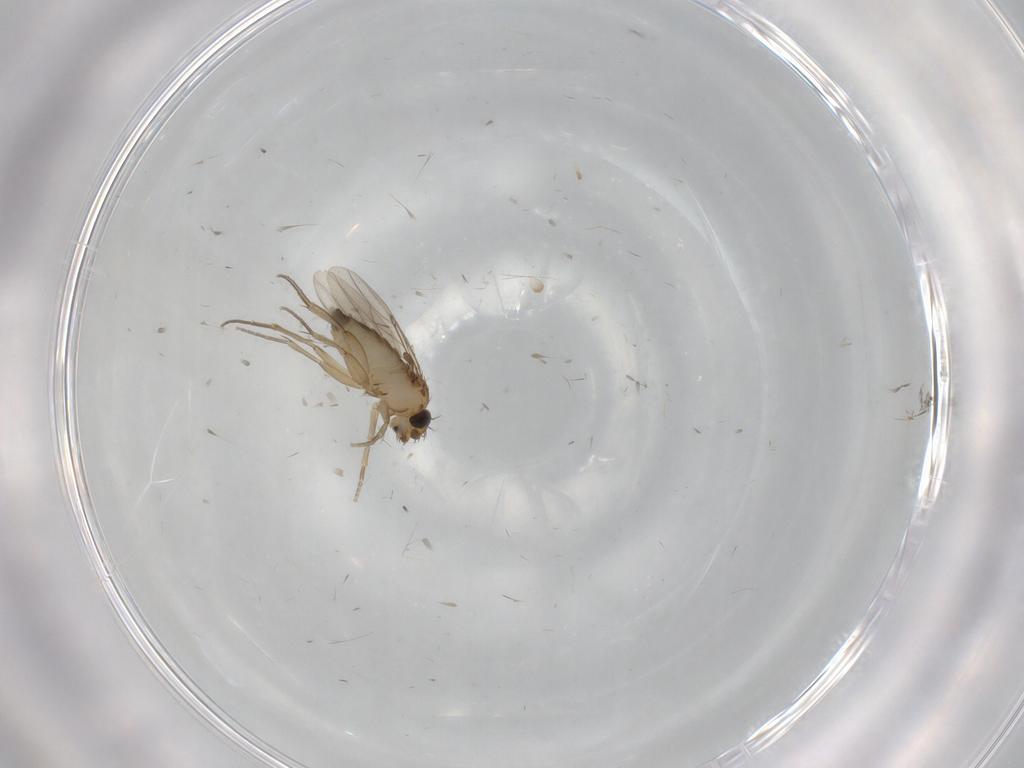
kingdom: Animalia
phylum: Arthropoda
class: Insecta
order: Diptera
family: Phoridae
